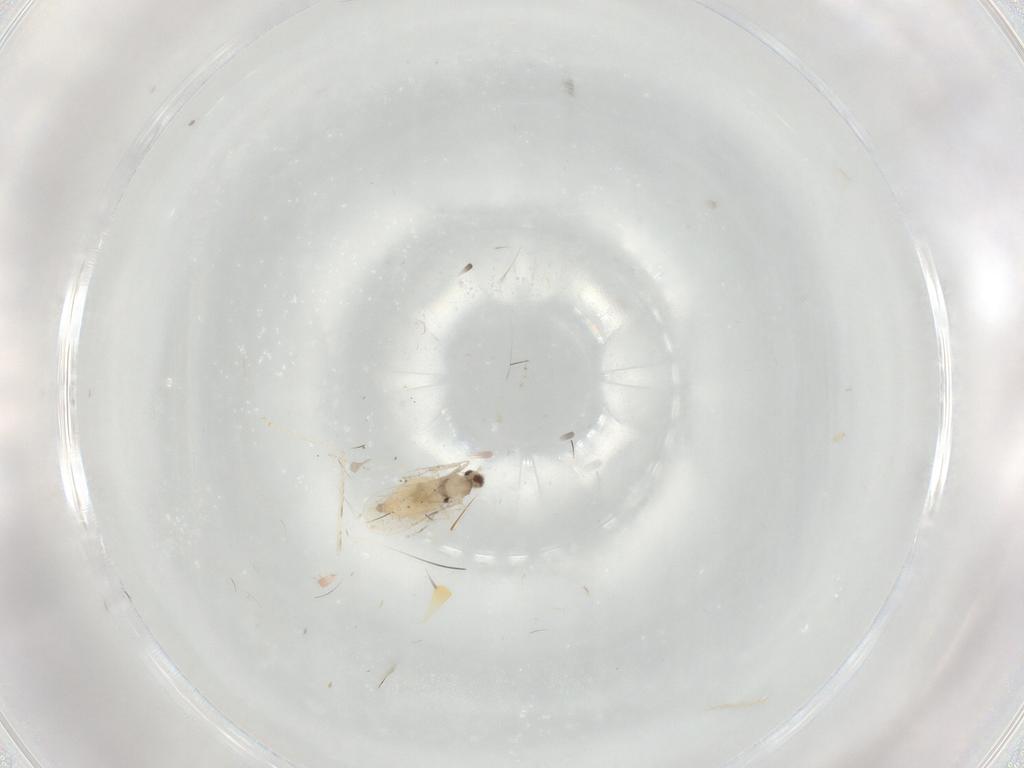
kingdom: Animalia
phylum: Arthropoda
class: Insecta
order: Diptera
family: Cecidomyiidae
